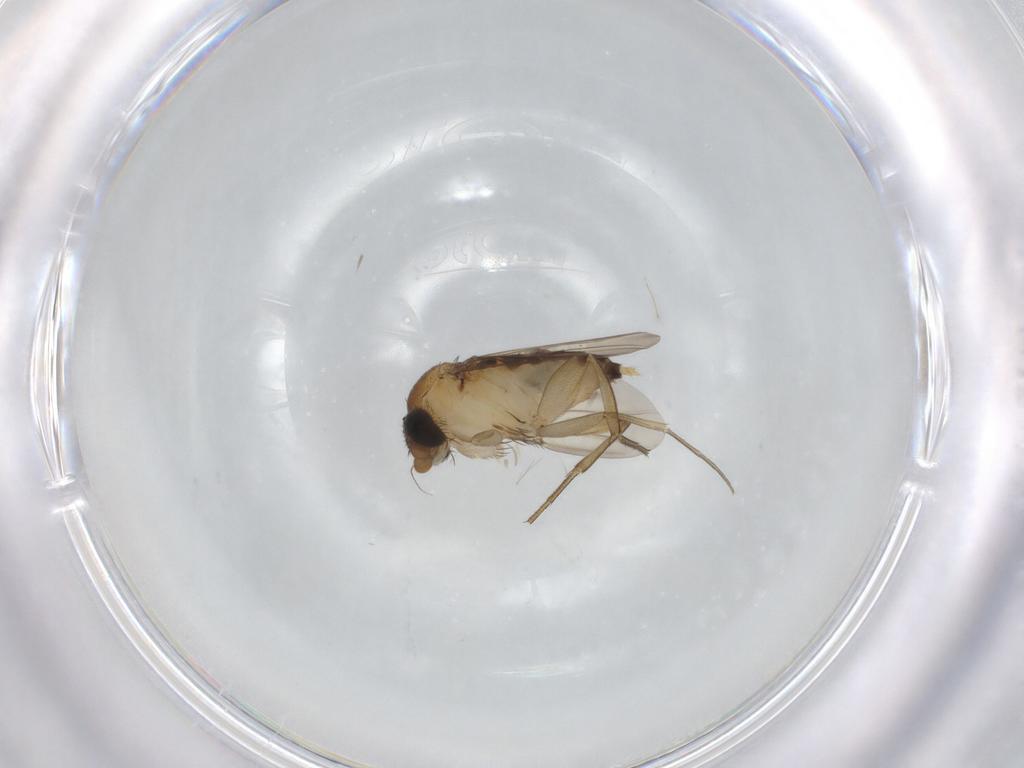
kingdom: Animalia
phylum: Arthropoda
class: Insecta
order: Diptera
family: Phoridae
